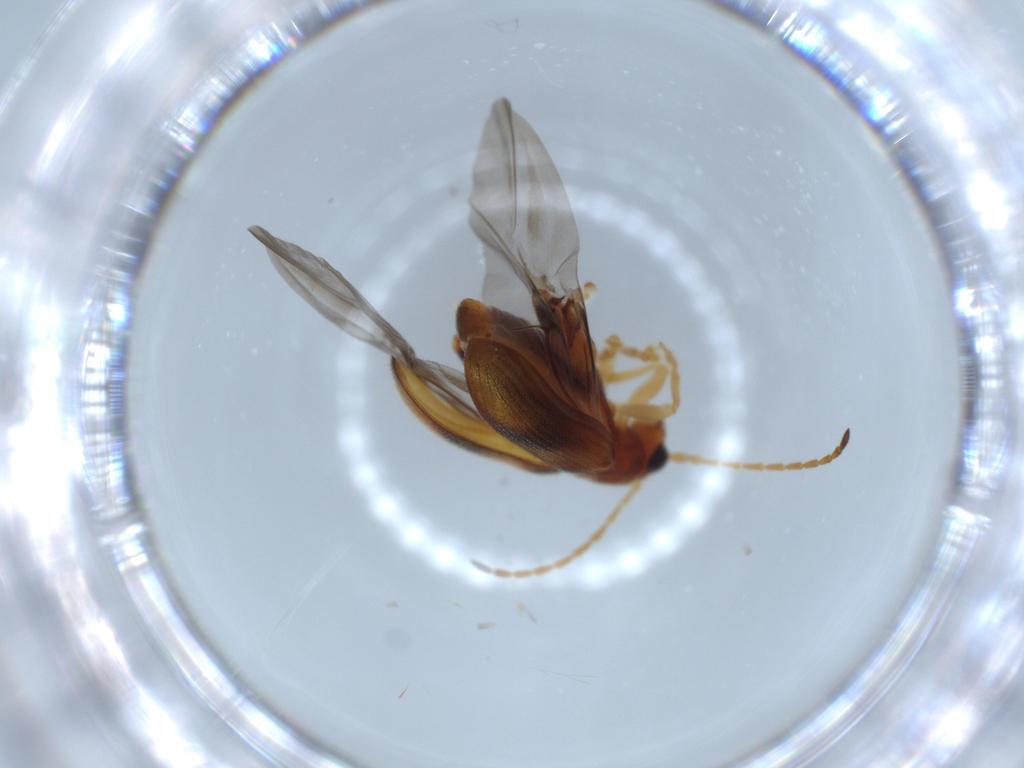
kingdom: Animalia
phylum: Arthropoda
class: Insecta
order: Coleoptera
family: Chrysomelidae
